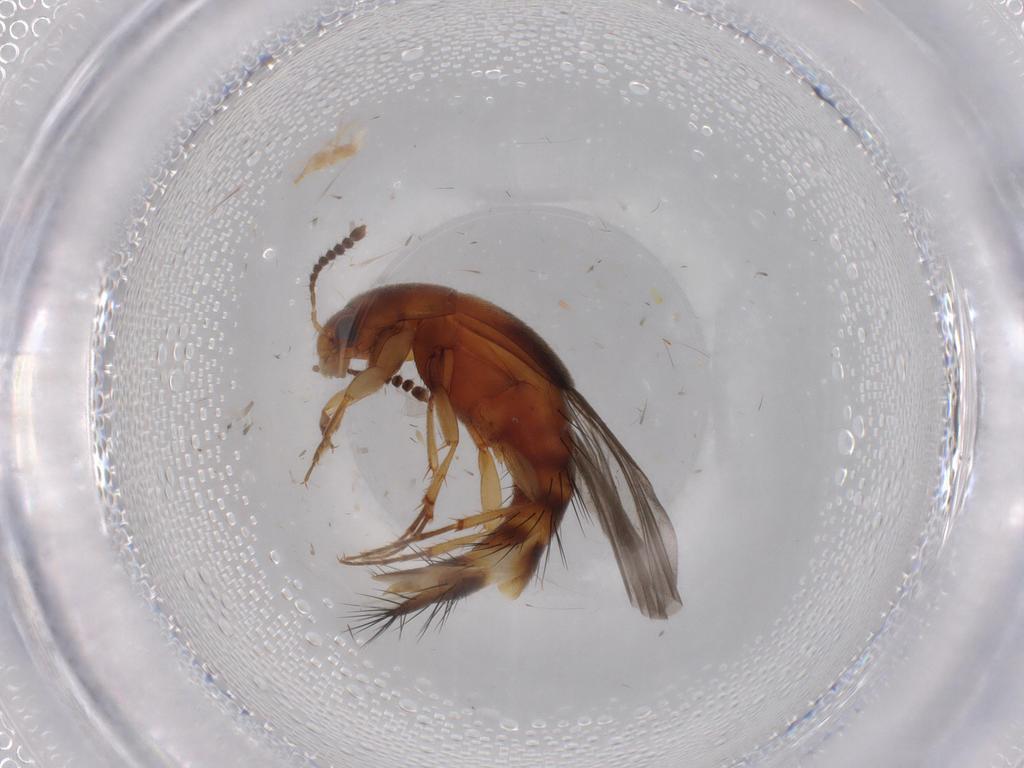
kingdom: Animalia
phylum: Arthropoda
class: Insecta
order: Coleoptera
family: Staphylinidae
